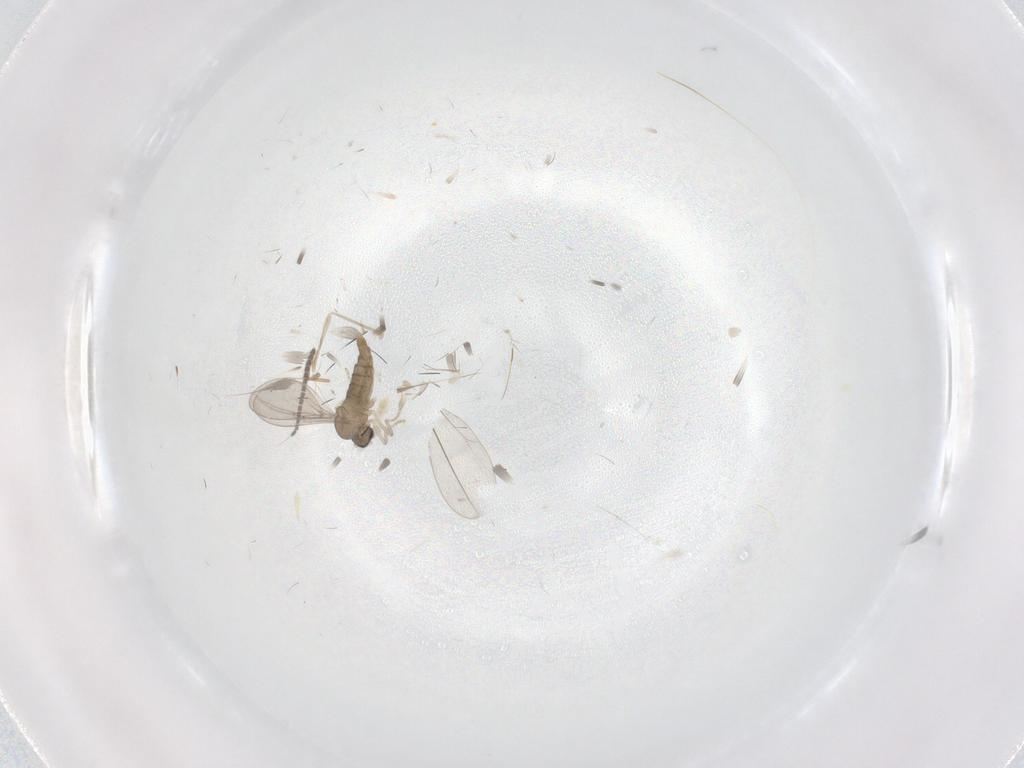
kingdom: Animalia
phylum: Arthropoda
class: Insecta
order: Diptera
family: Sciaridae
